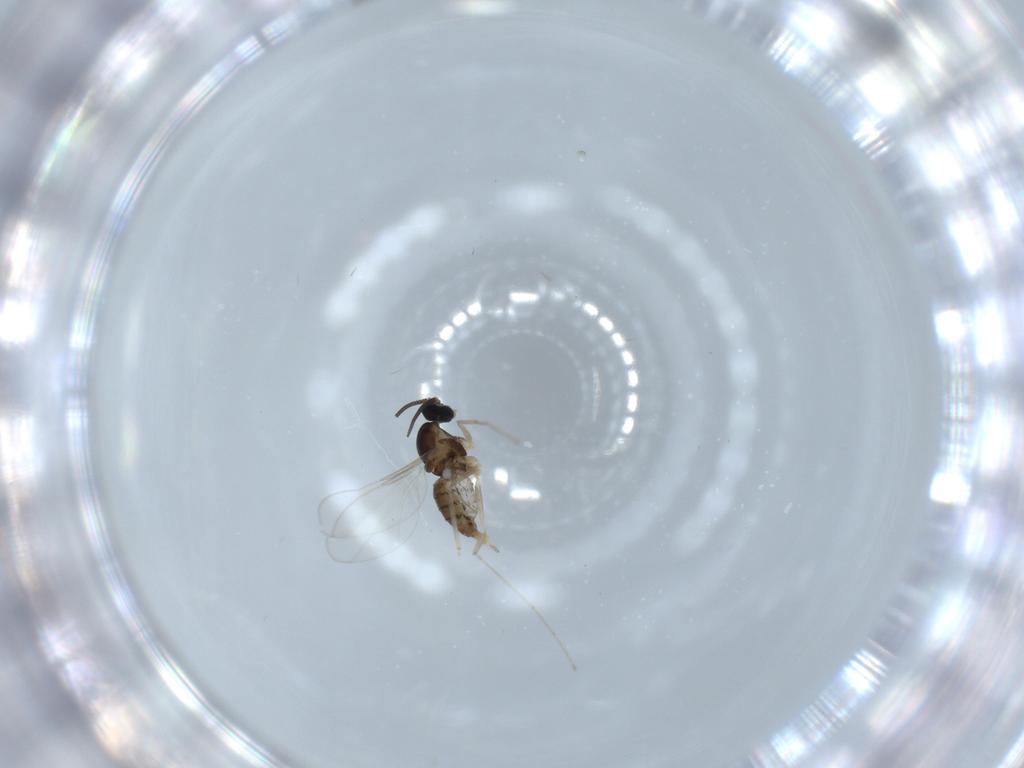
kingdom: Animalia
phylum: Arthropoda
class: Insecta
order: Diptera
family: Cecidomyiidae
